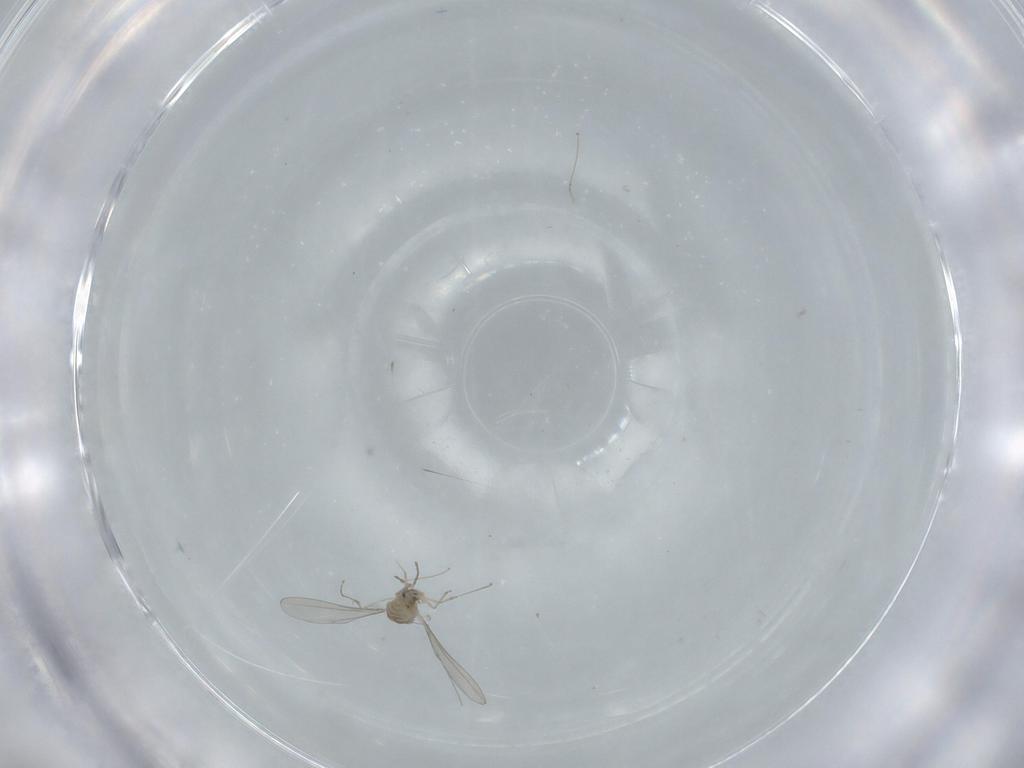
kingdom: Animalia
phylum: Arthropoda
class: Insecta
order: Diptera
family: Cecidomyiidae
